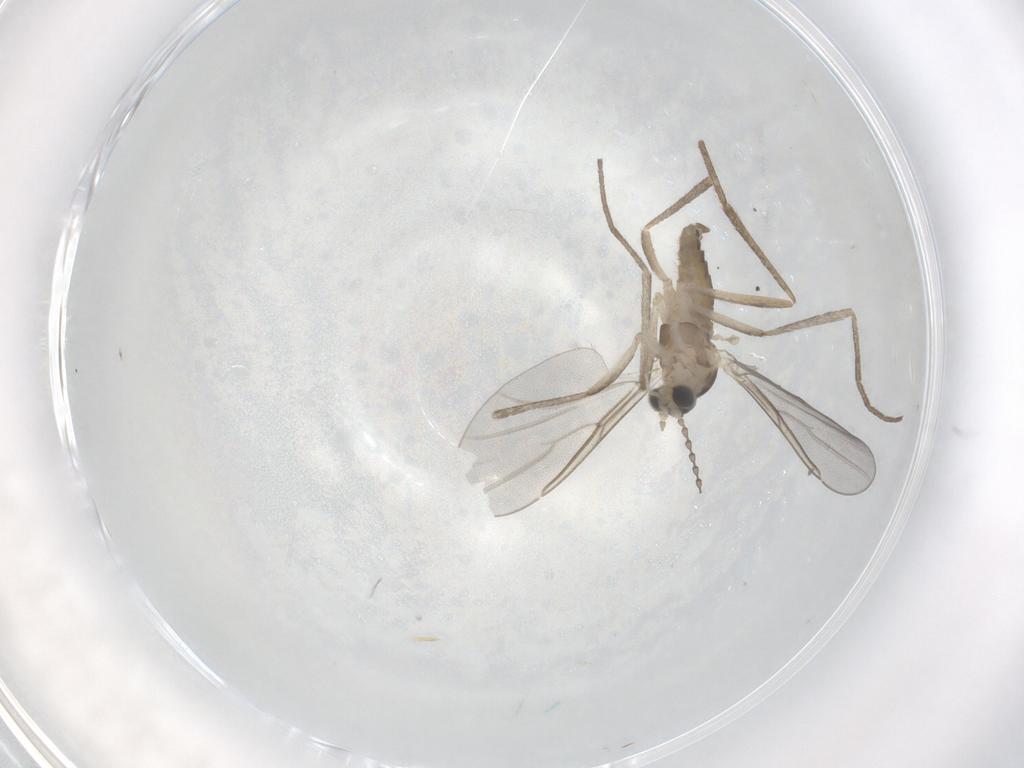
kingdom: Animalia
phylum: Arthropoda
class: Insecta
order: Diptera
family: Cecidomyiidae
